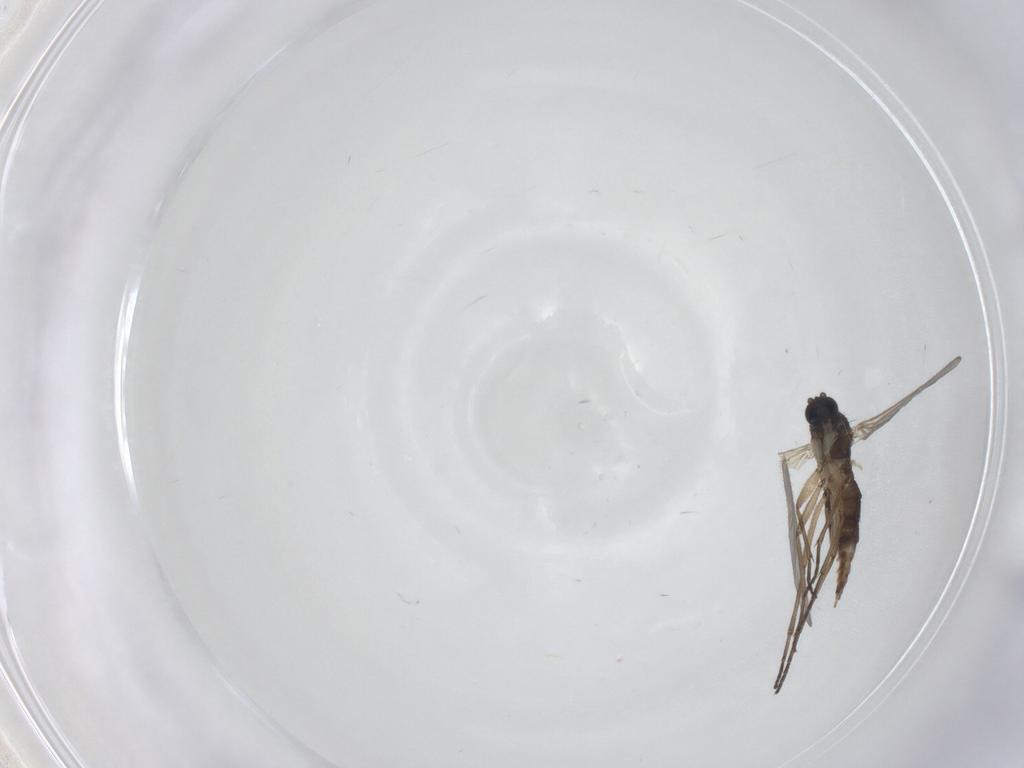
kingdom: Animalia
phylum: Arthropoda
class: Insecta
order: Diptera
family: Sciaridae
